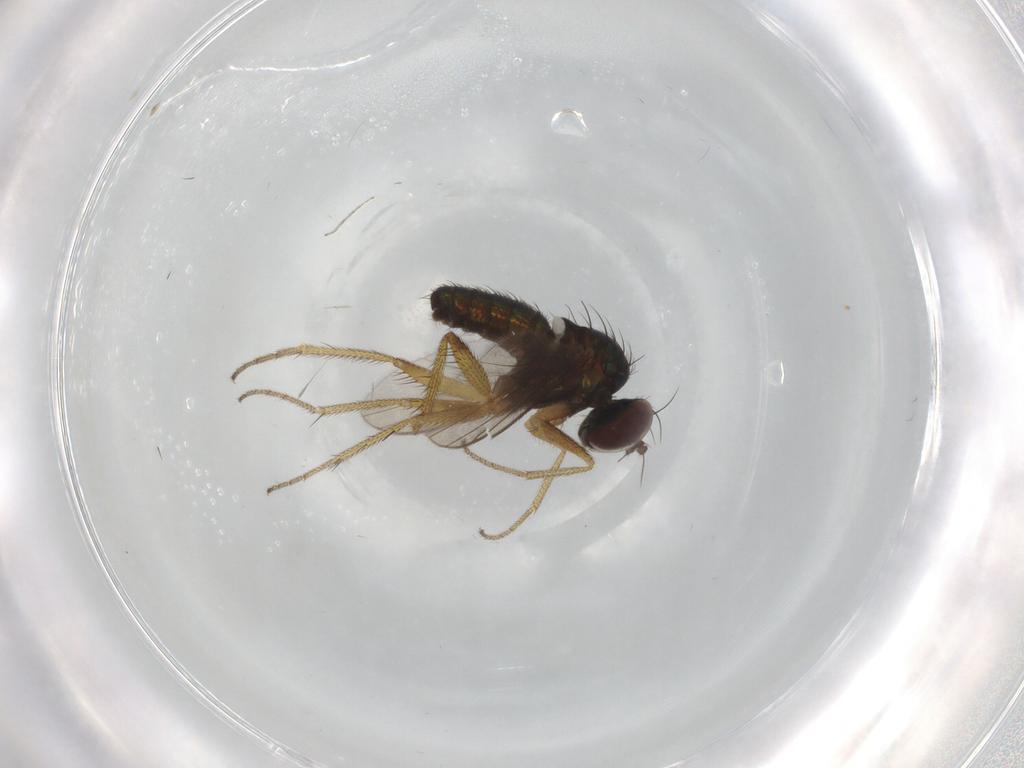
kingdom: Animalia
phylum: Arthropoda
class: Insecta
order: Diptera
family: Dolichopodidae
